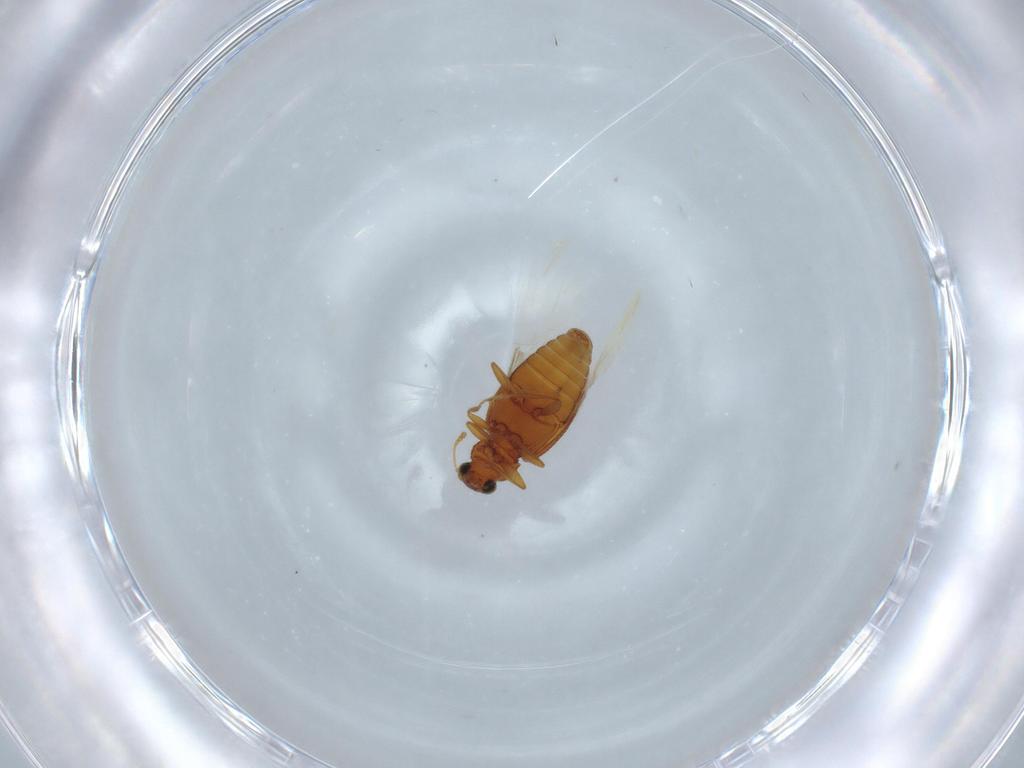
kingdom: Animalia
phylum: Arthropoda
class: Insecta
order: Coleoptera
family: Latridiidae
